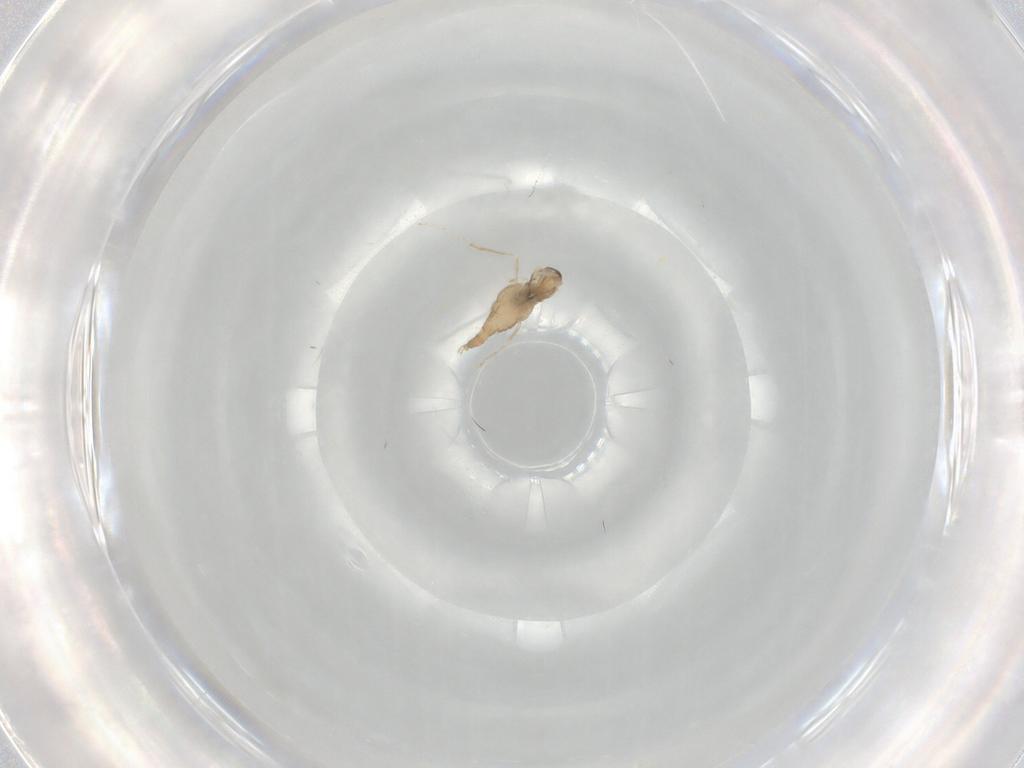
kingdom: Animalia
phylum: Arthropoda
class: Insecta
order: Diptera
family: Cecidomyiidae
